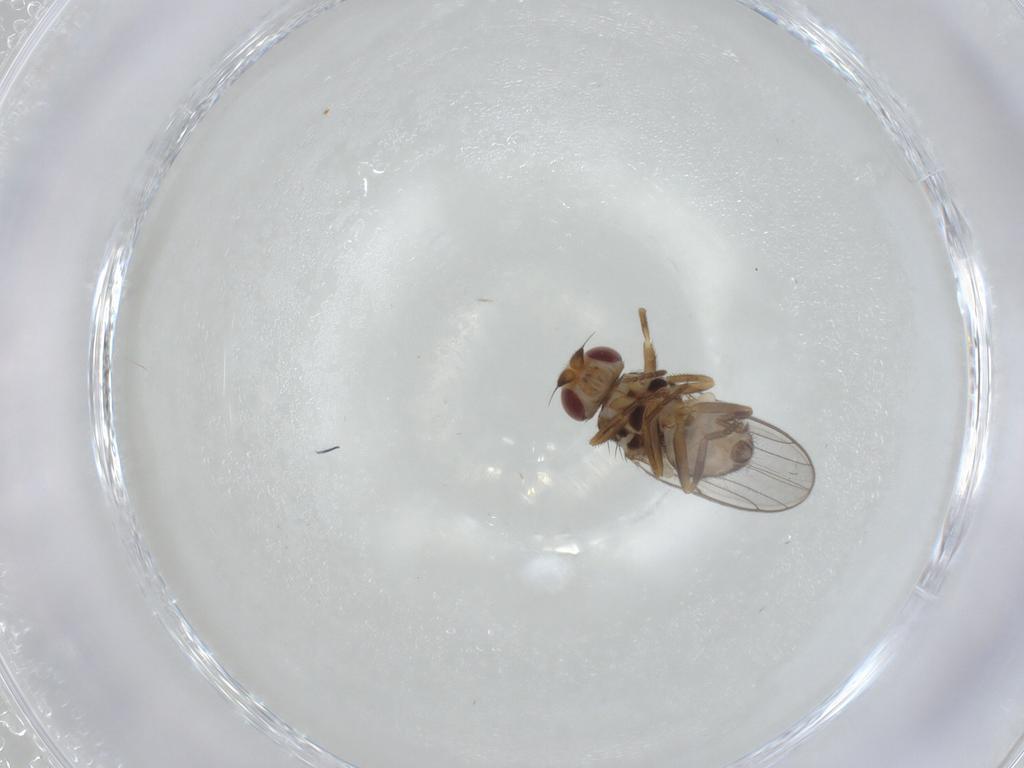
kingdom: Animalia
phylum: Arthropoda
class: Insecta
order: Diptera
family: Chloropidae
